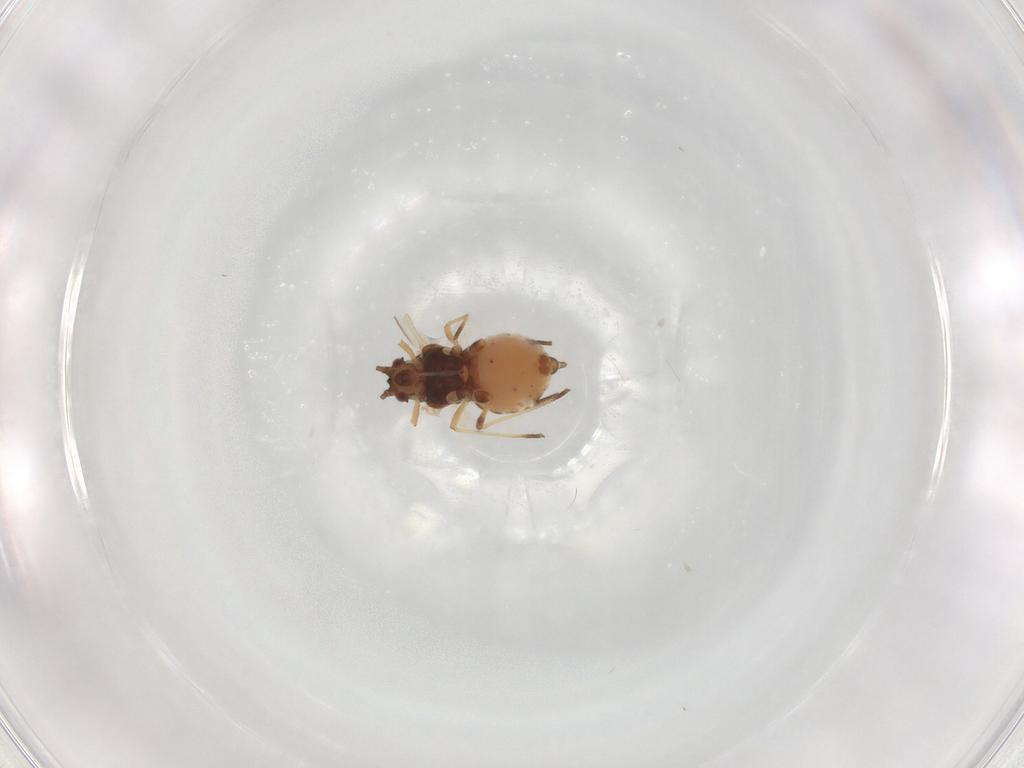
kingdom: Animalia
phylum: Arthropoda
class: Insecta
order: Hemiptera
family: Aphididae
